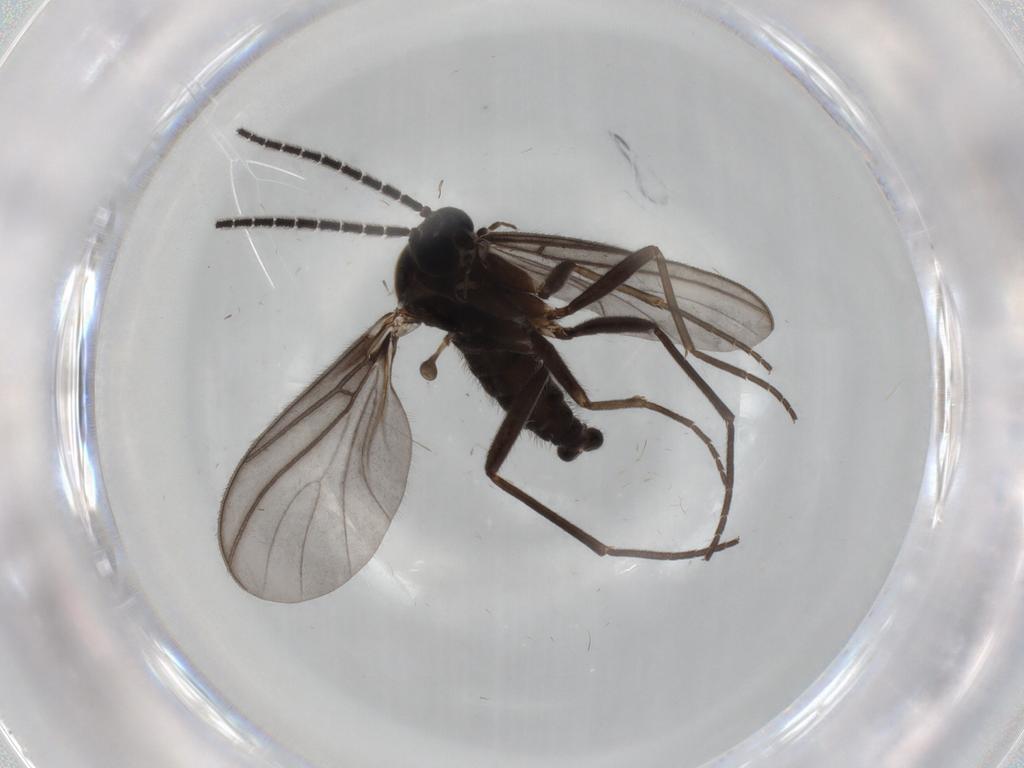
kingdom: Animalia
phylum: Arthropoda
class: Insecta
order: Diptera
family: Sciaridae
